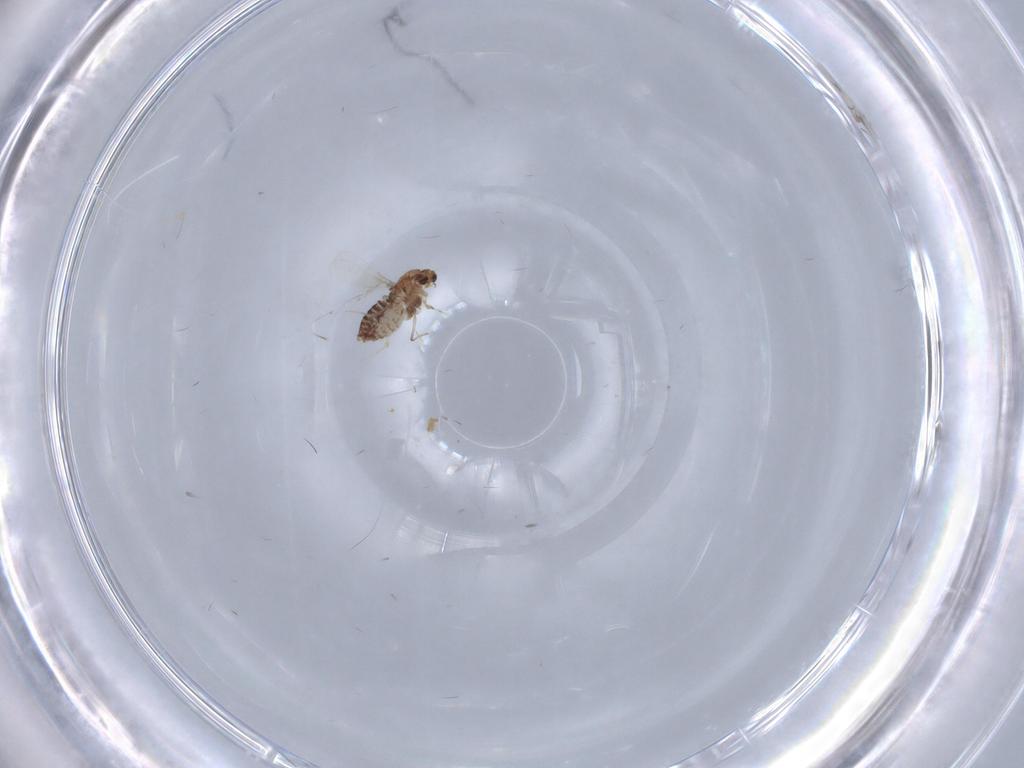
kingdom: Animalia
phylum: Arthropoda
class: Insecta
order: Diptera
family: Chironomidae
